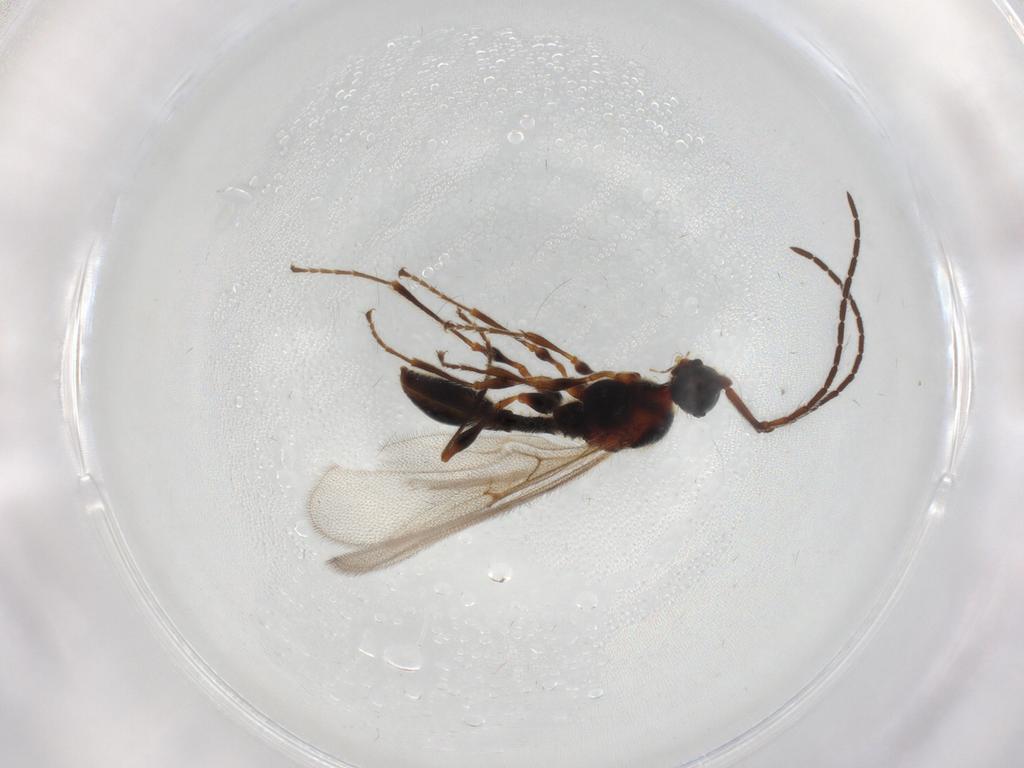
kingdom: Animalia
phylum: Arthropoda
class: Insecta
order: Hymenoptera
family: Diapriidae
